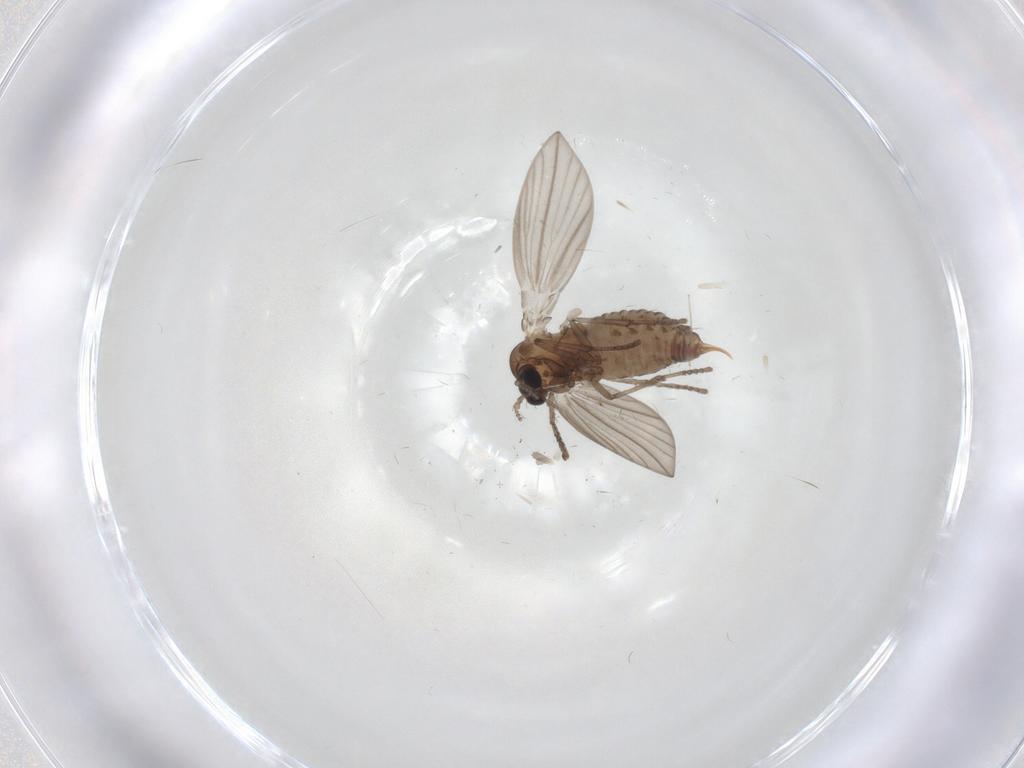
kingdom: Animalia
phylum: Arthropoda
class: Insecta
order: Diptera
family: Psychodidae
